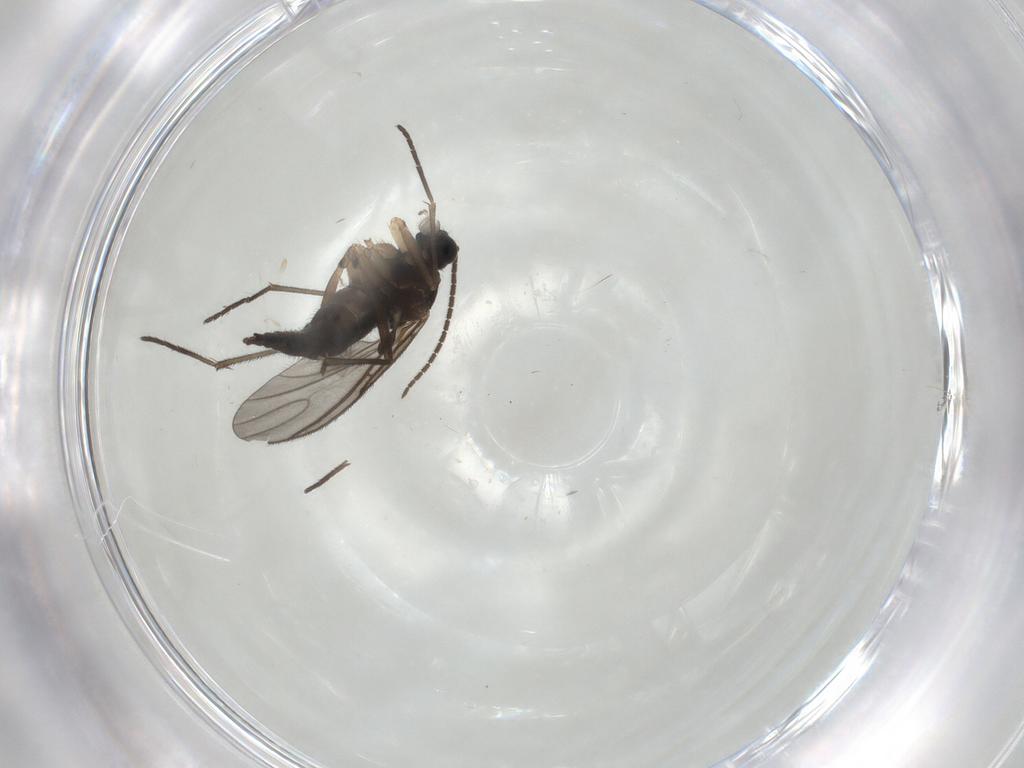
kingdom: Animalia
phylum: Arthropoda
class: Insecta
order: Diptera
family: Sciaridae
